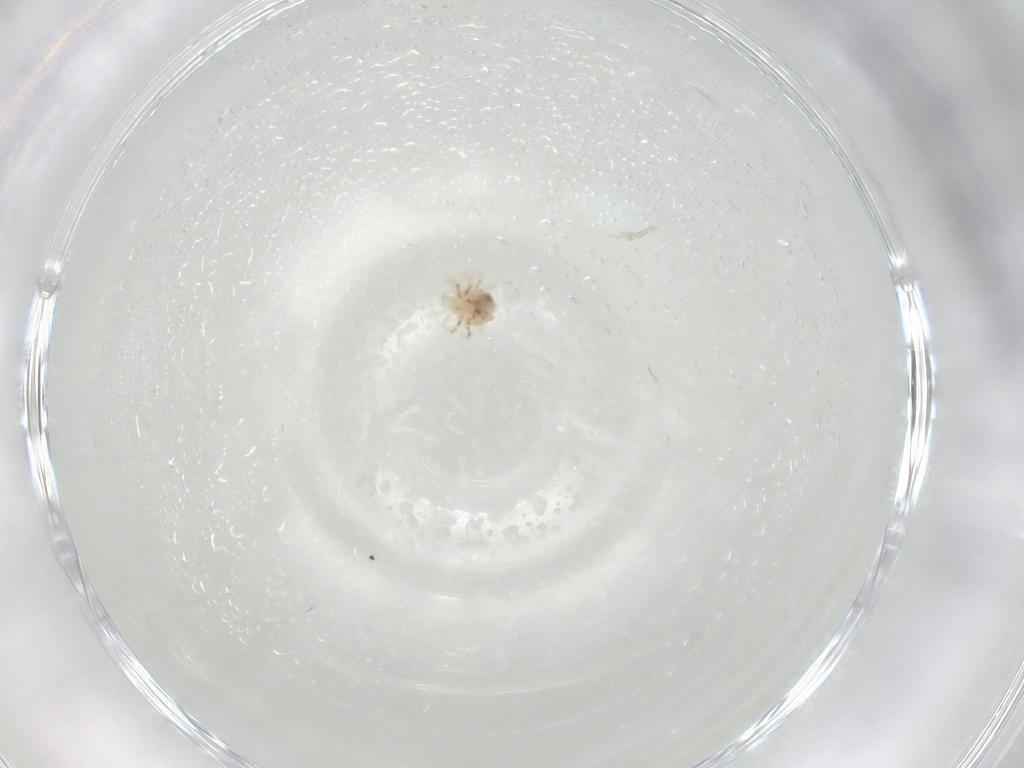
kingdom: Animalia
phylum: Arthropoda
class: Arachnida
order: Trombidiformes
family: Anystidae
